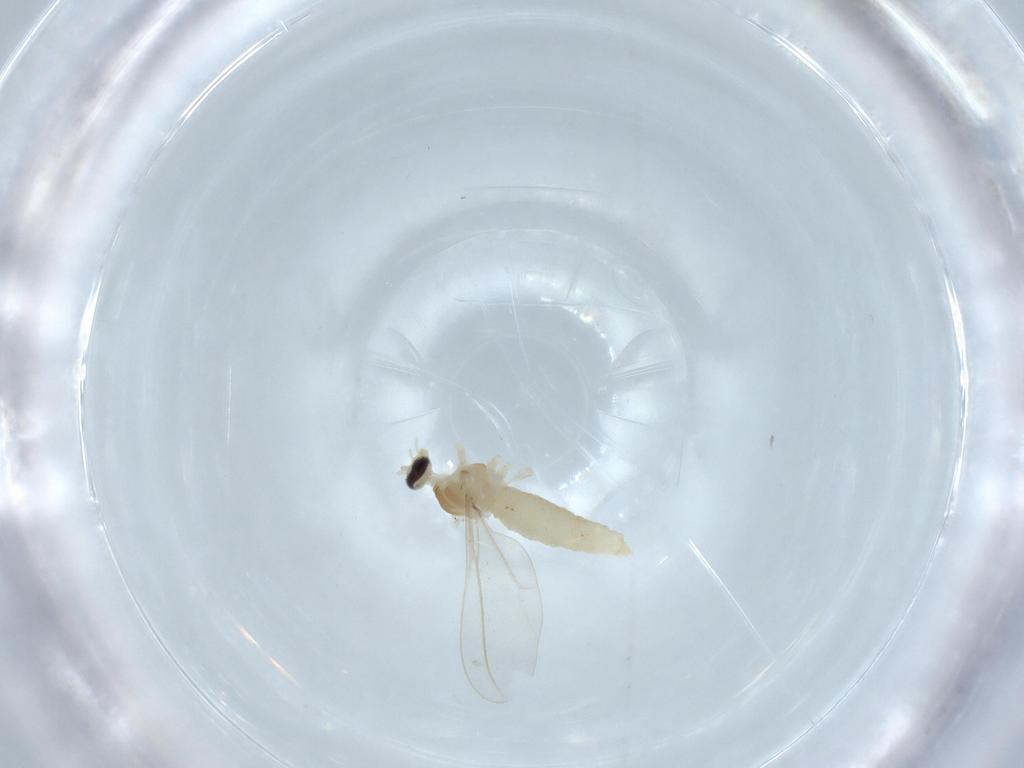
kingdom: Animalia
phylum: Arthropoda
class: Insecta
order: Diptera
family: Cecidomyiidae
